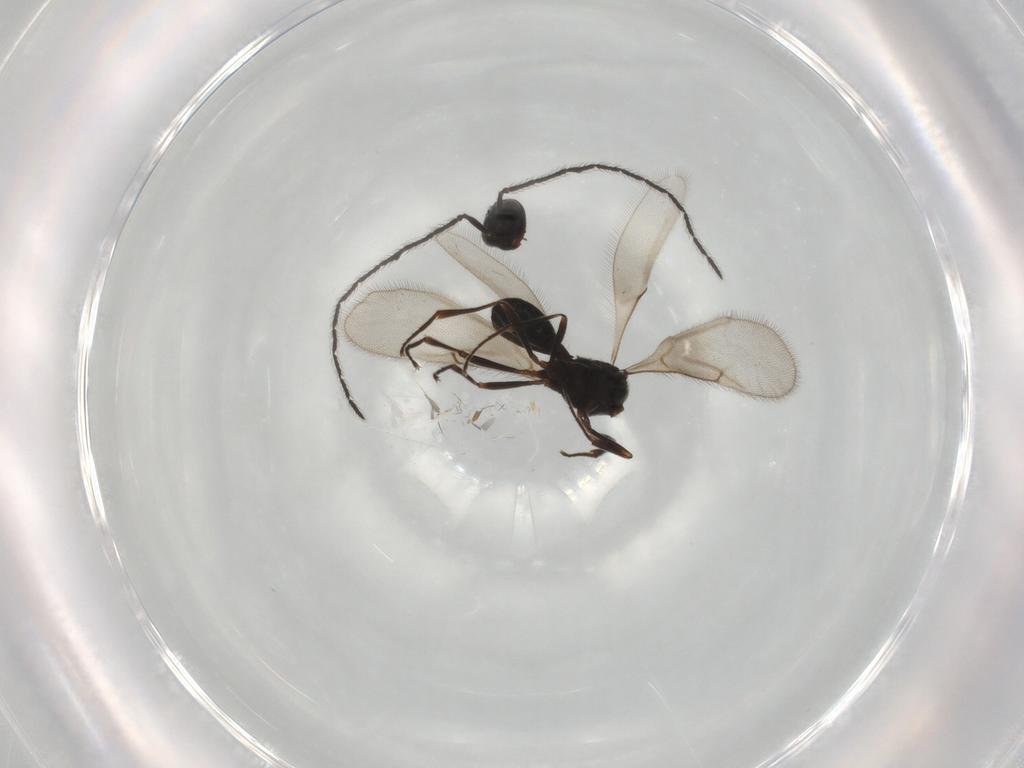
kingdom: Animalia
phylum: Arthropoda
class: Insecta
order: Hymenoptera
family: Scelionidae
